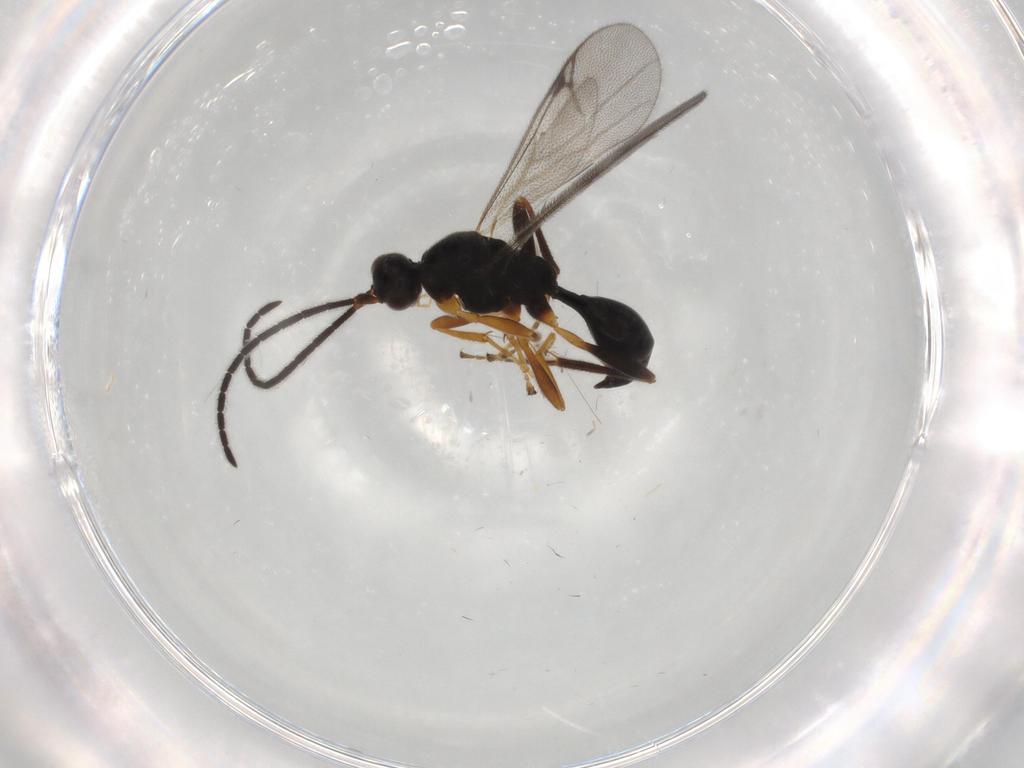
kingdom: Animalia
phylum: Arthropoda
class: Insecta
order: Hymenoptera
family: Proctotrupidae
